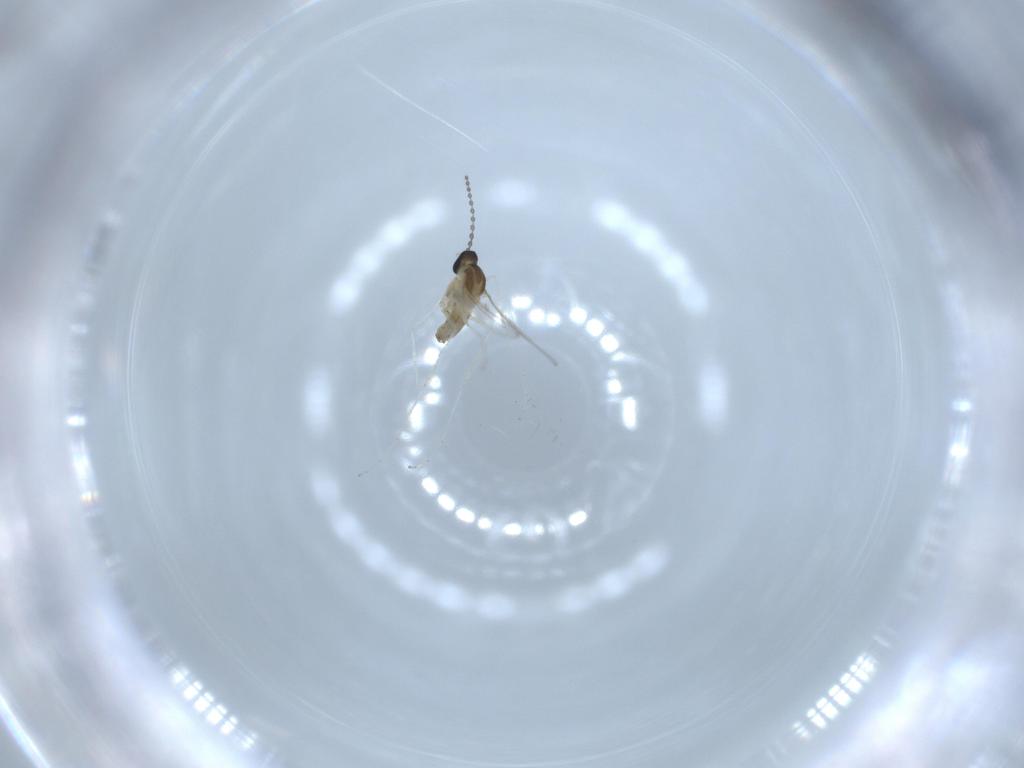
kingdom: Animalia
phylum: Arthropoda
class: Insecta
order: Diptera
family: Cecidomyiidae
